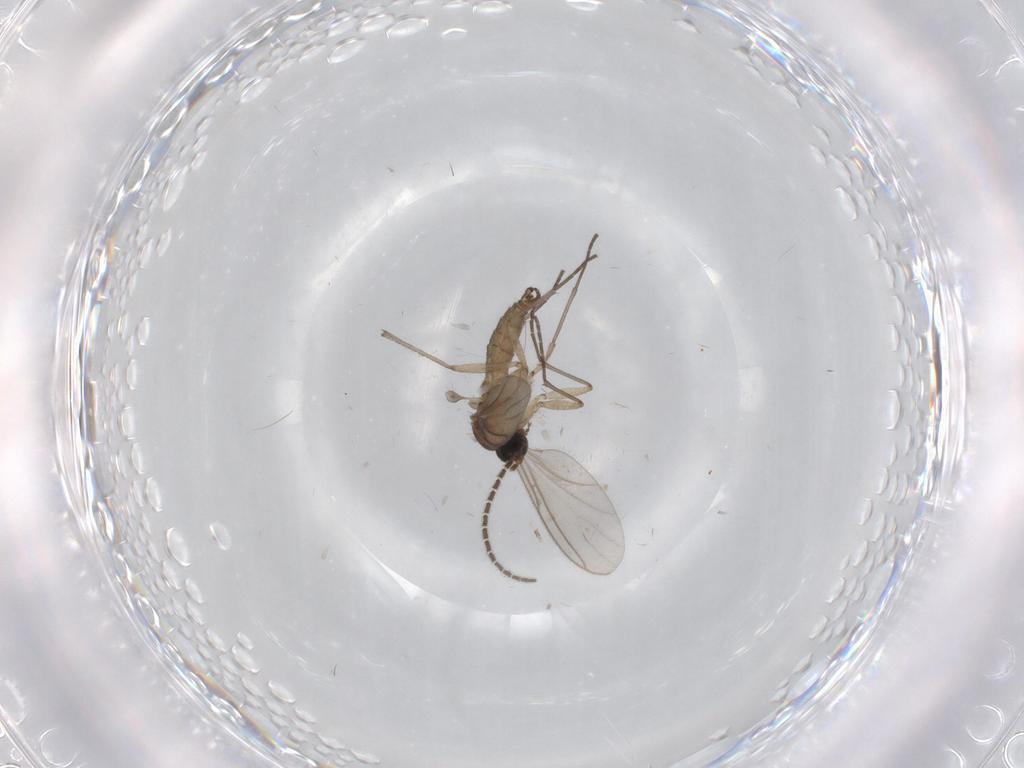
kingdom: Animalia
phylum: Arthropoda
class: Insecta
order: Diptera
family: Sciaridae
